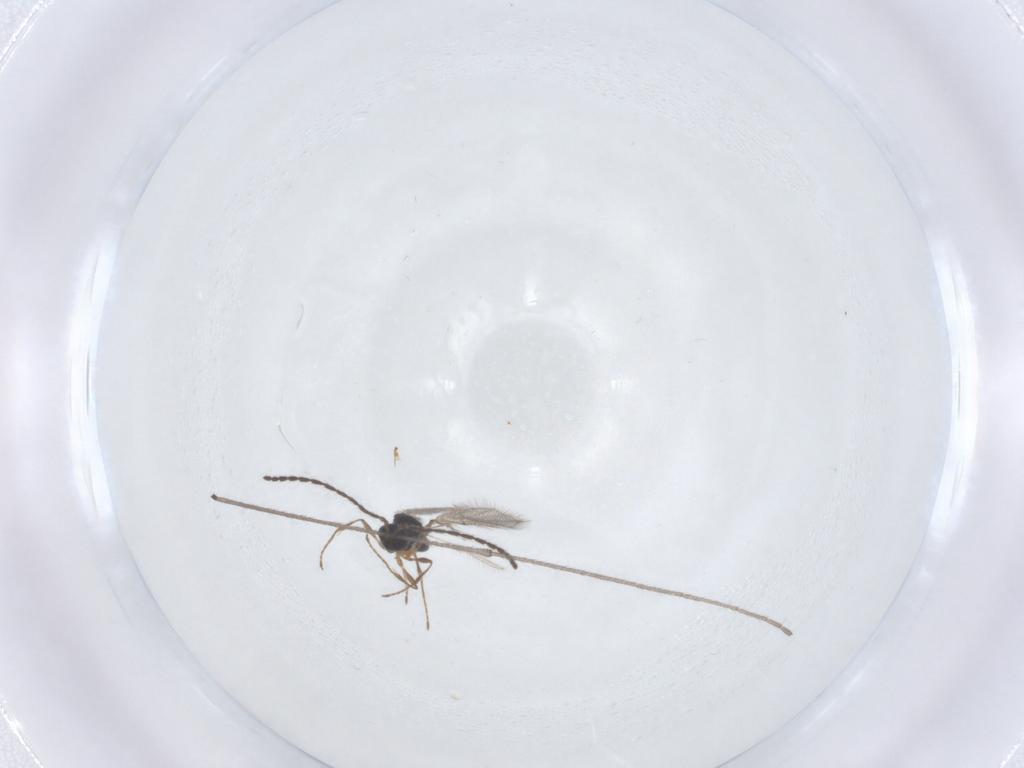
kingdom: Animalia
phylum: Arthropoda
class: Insecta
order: Hymenoptera
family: Diapriidae
